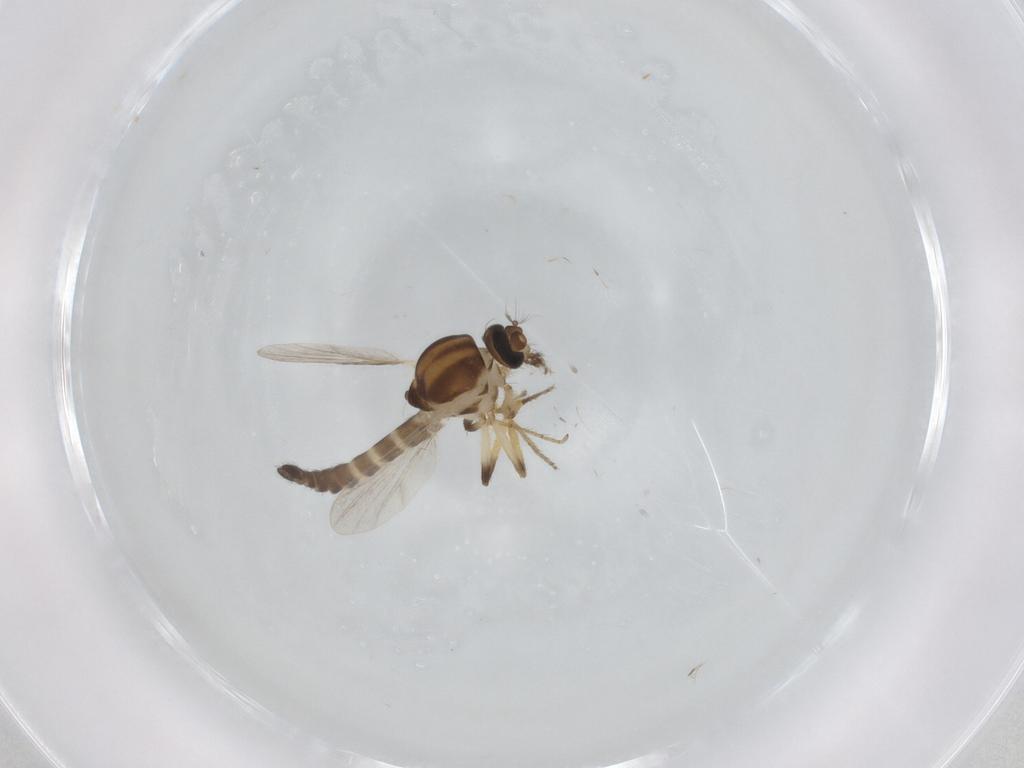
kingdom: Animalia
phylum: Arthropoda
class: Insecta
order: Diptera
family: Ceratopogonidae
